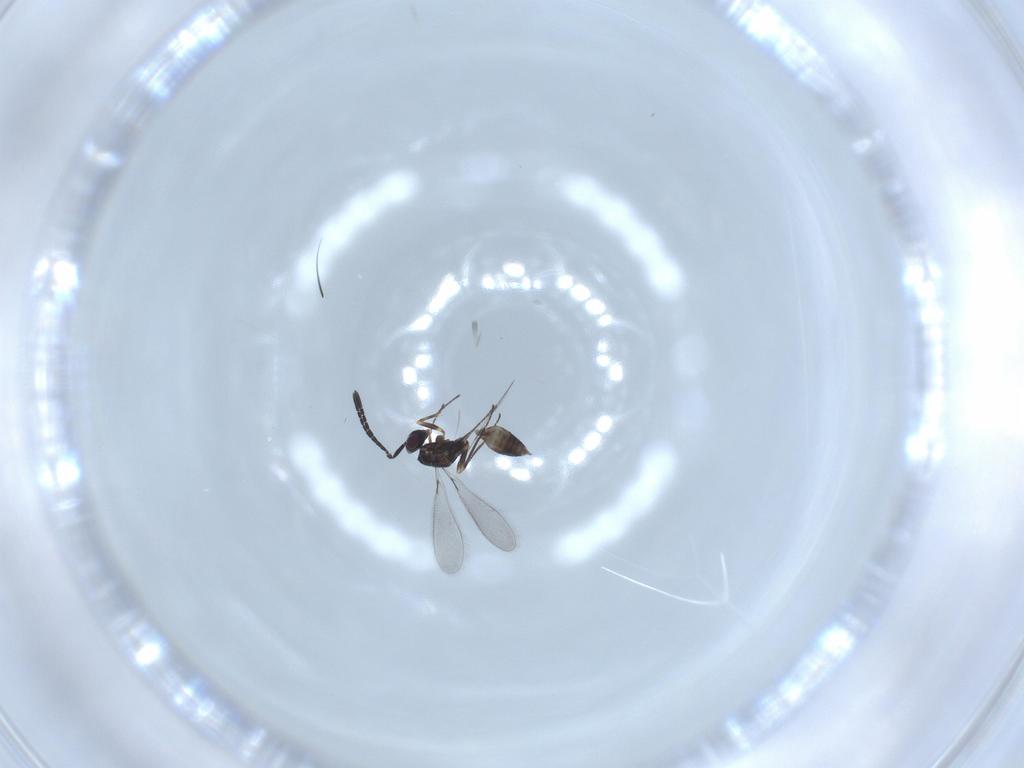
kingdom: Animalia
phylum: Arthropoda
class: Insecta
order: Hymenoptera
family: Mymaridae
